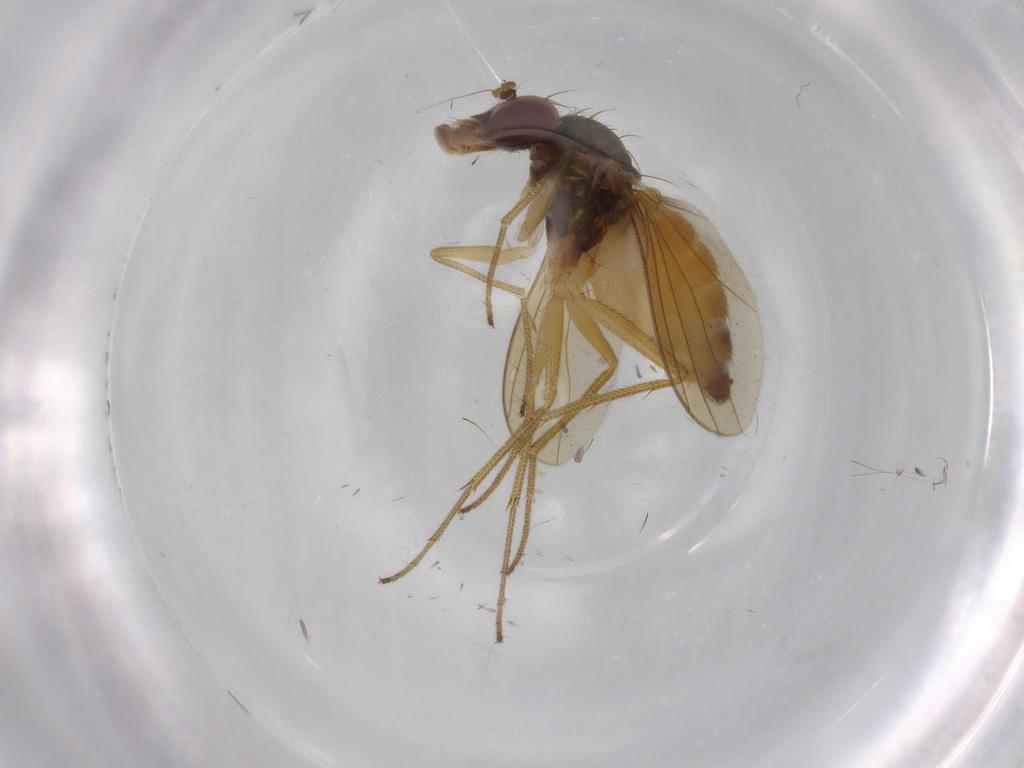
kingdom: Animalia
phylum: Arthropoda
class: Insecta
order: Diptera
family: Dolichopodidae
